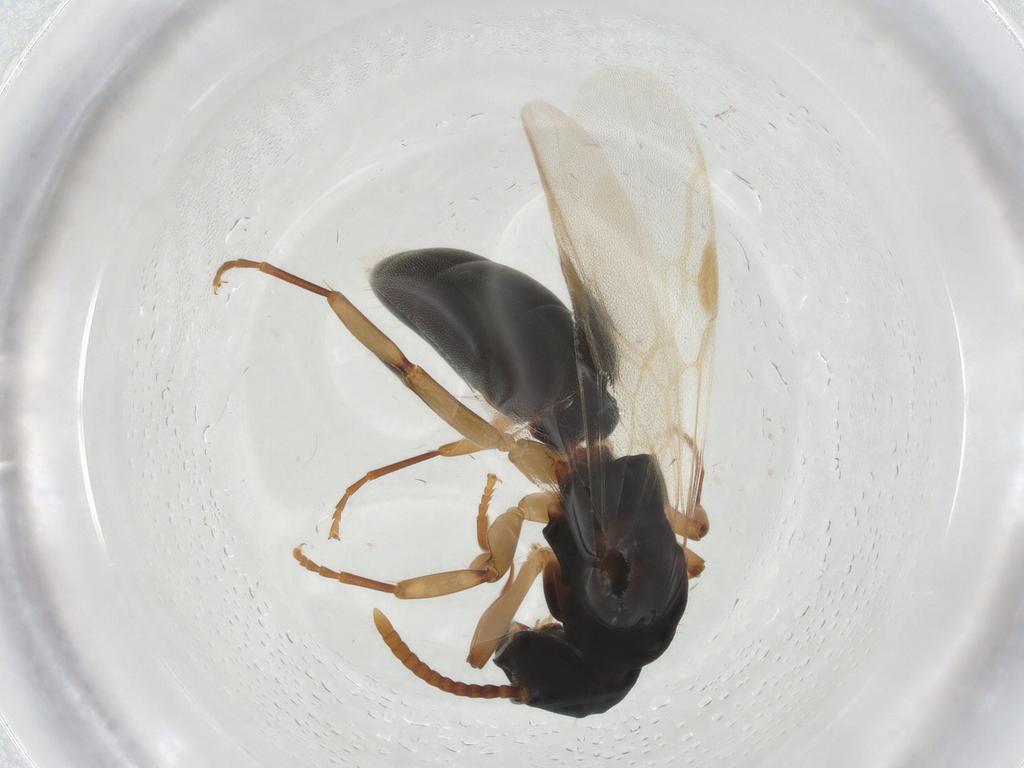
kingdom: Animalia
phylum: Arthropoda
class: Insecta
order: Hymenoptera
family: Formicidae
